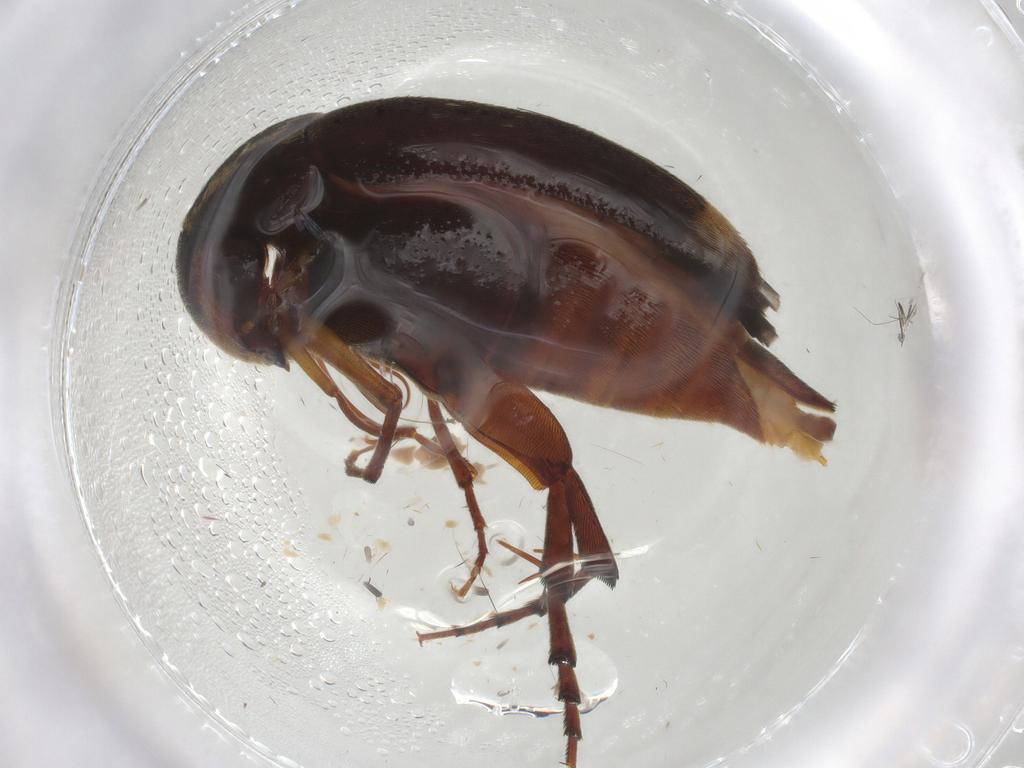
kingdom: Animalia
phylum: Arthropoda
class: Insecta
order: Coleoptera
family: Mordellidae
